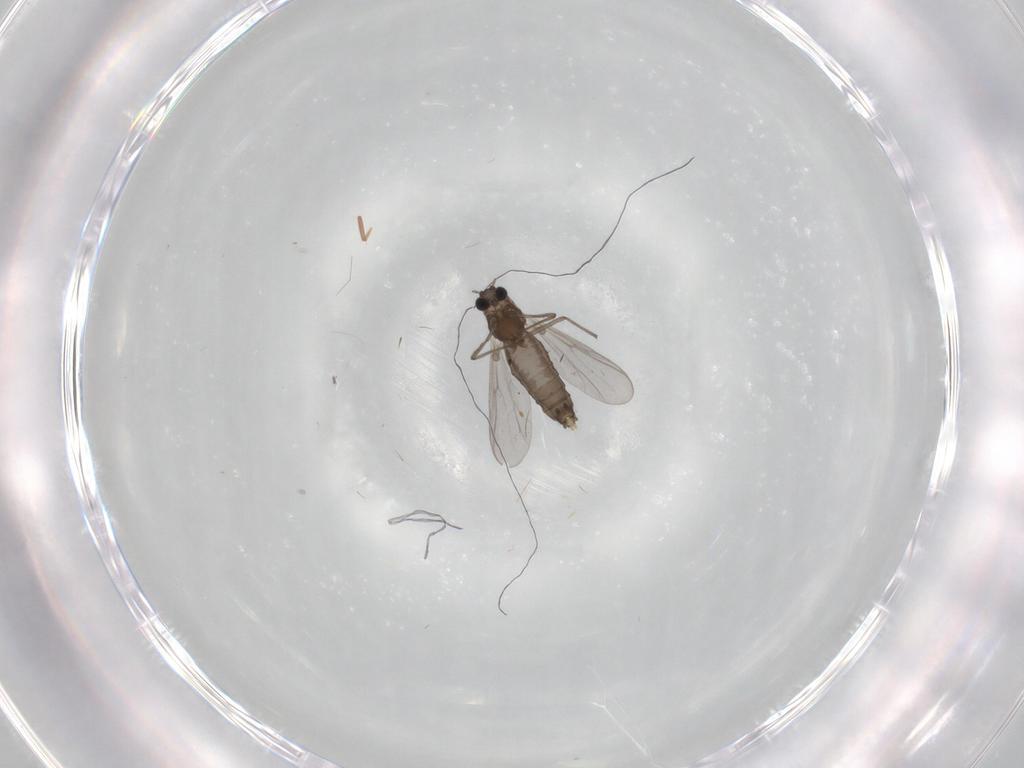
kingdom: Animalia
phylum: Arthropoda
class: Insecta
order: Diptera
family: Chironomidae
